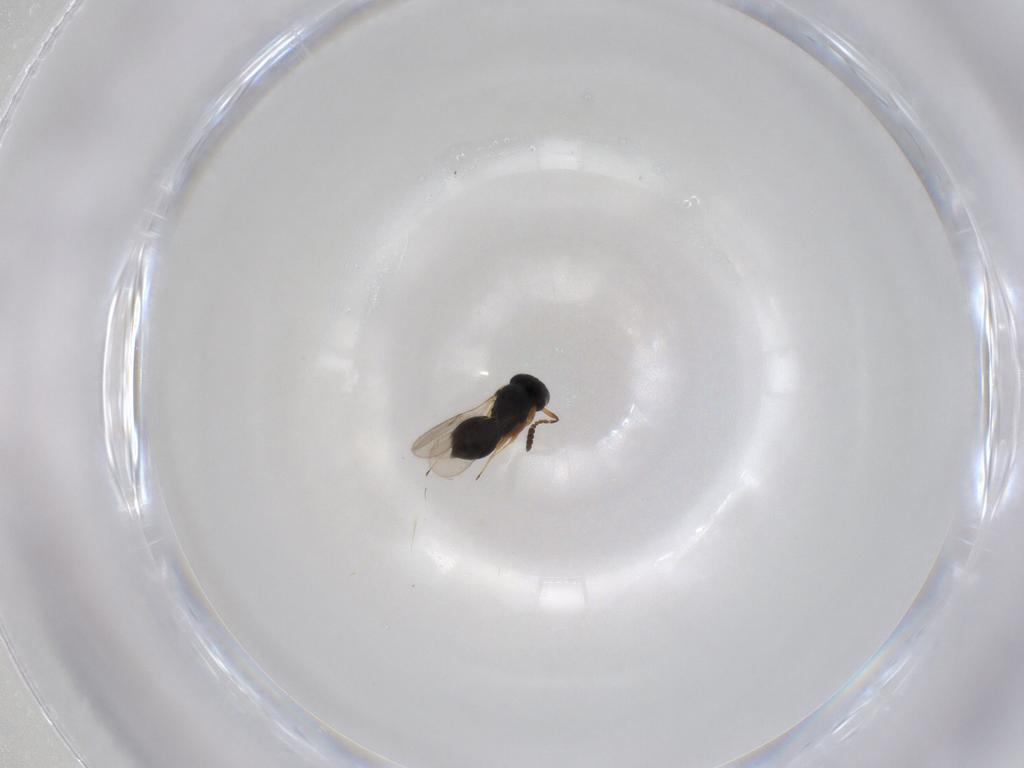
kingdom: Animalia
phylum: Arthropoda
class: Insecta
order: Hymenoptera
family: Scelionidae
